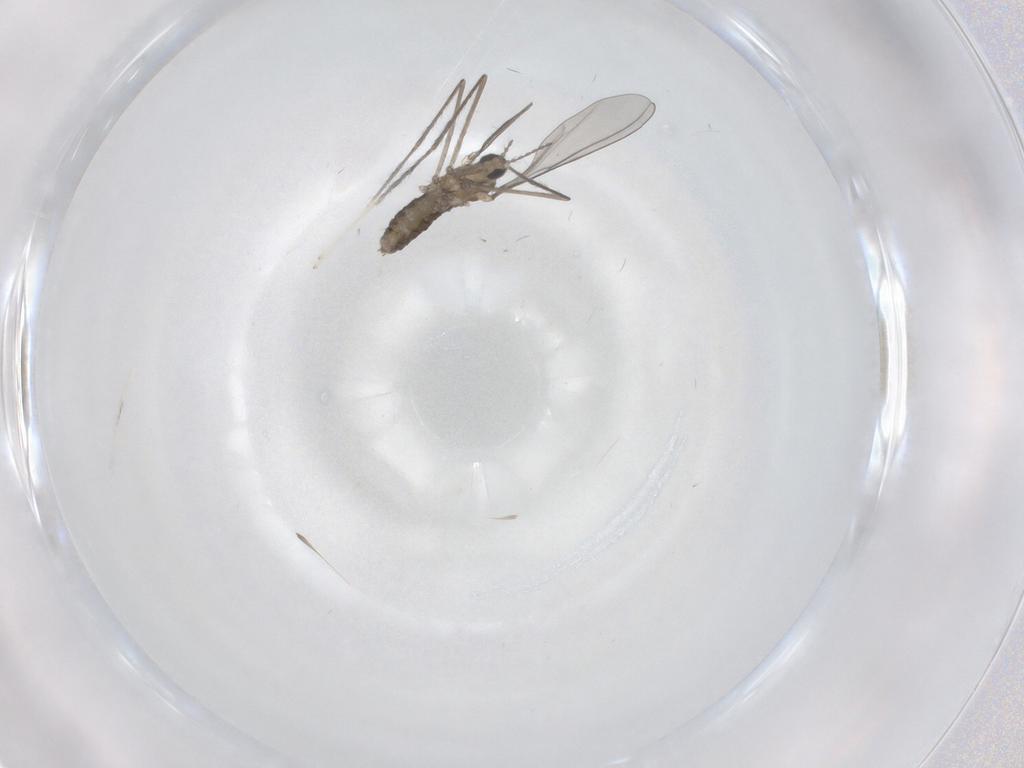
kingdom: Animalia
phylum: Arthropoda
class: Insecta
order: Diptera
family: Cecidomyiidae
